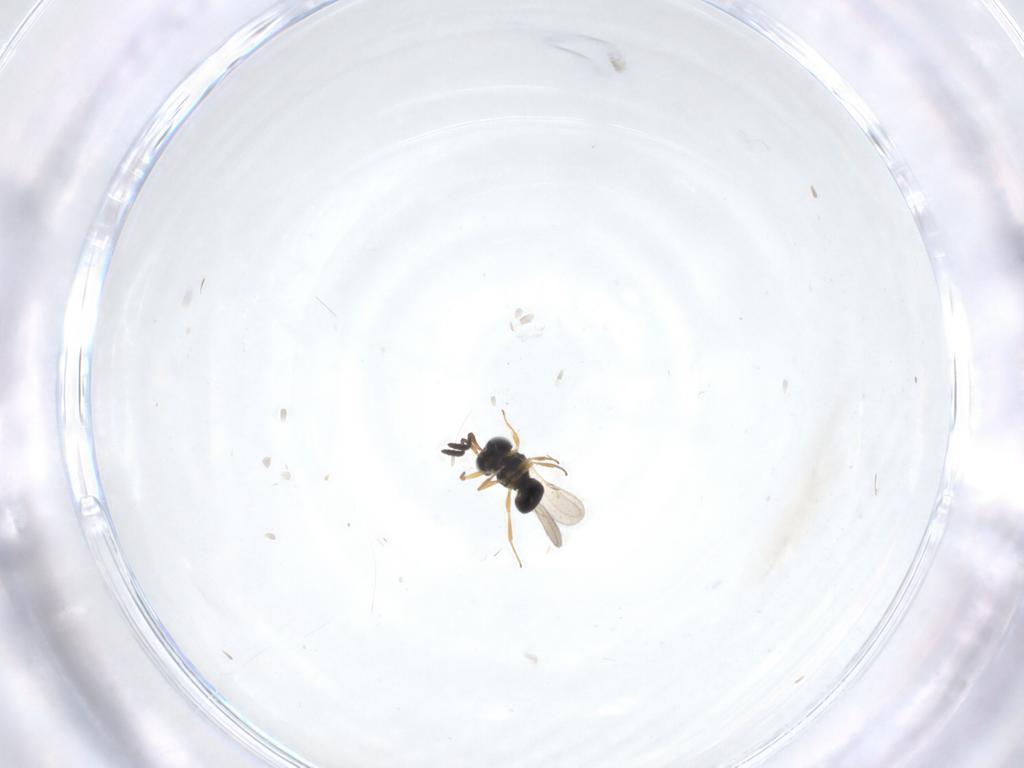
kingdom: Animalia
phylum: Arthropoda
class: Insecta
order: Hymenoptera
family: Scelionidae
